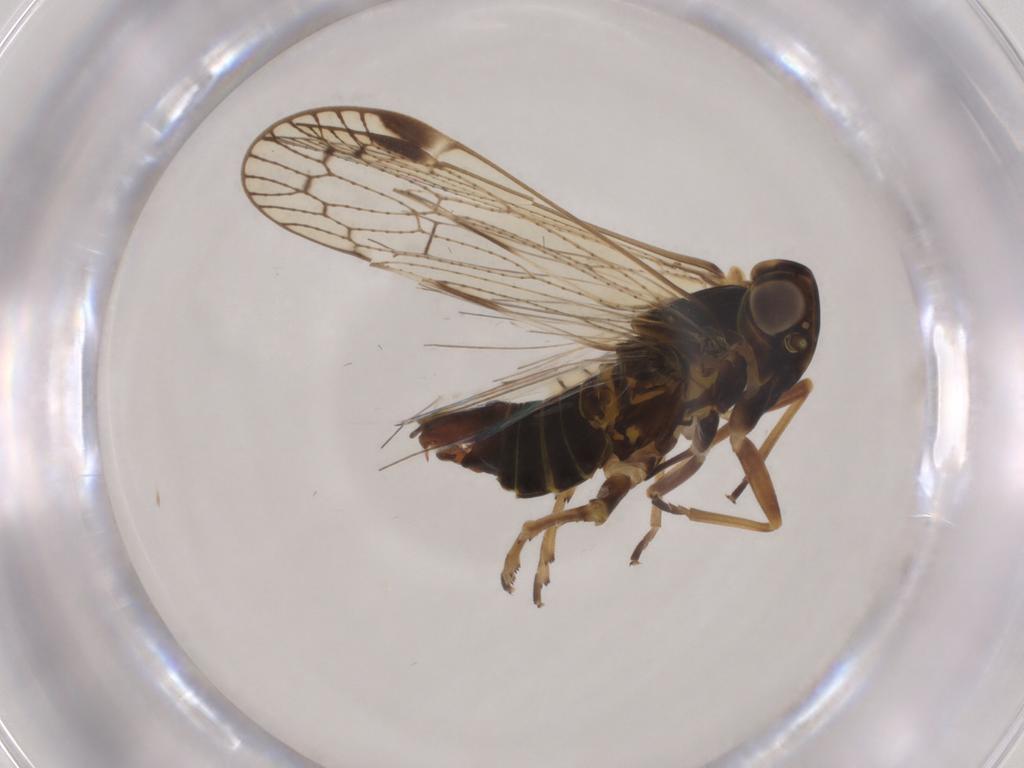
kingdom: Animalia
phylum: Arthropoda
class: Insecta
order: Hemiptera
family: Cixiidae
